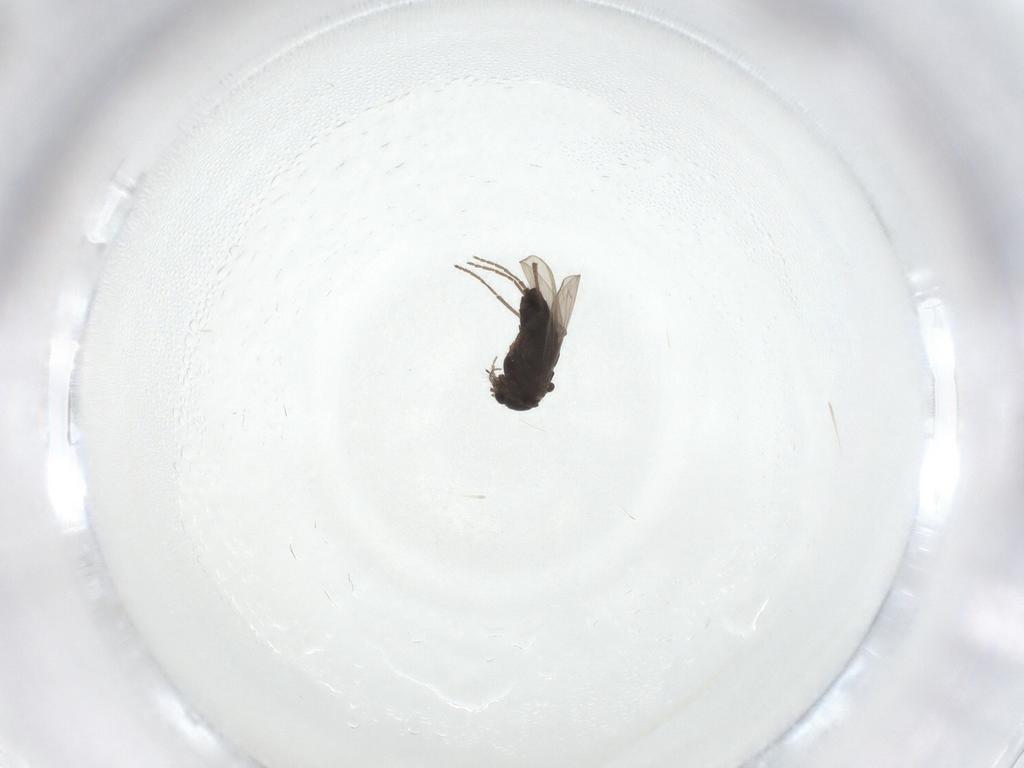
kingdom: Animalia
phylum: Arthropoda
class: Insecta
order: Diptera
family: Chironomidae
